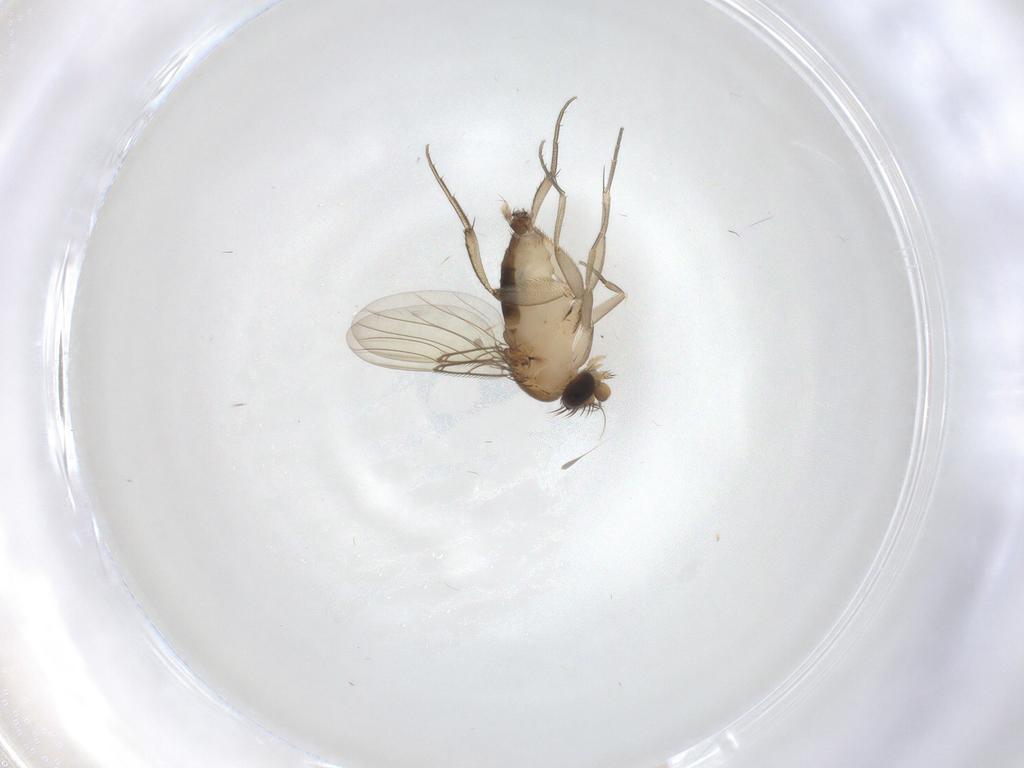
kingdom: Animalia
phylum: Arthropoda
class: Insecta
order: Diptera
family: Phoridae
